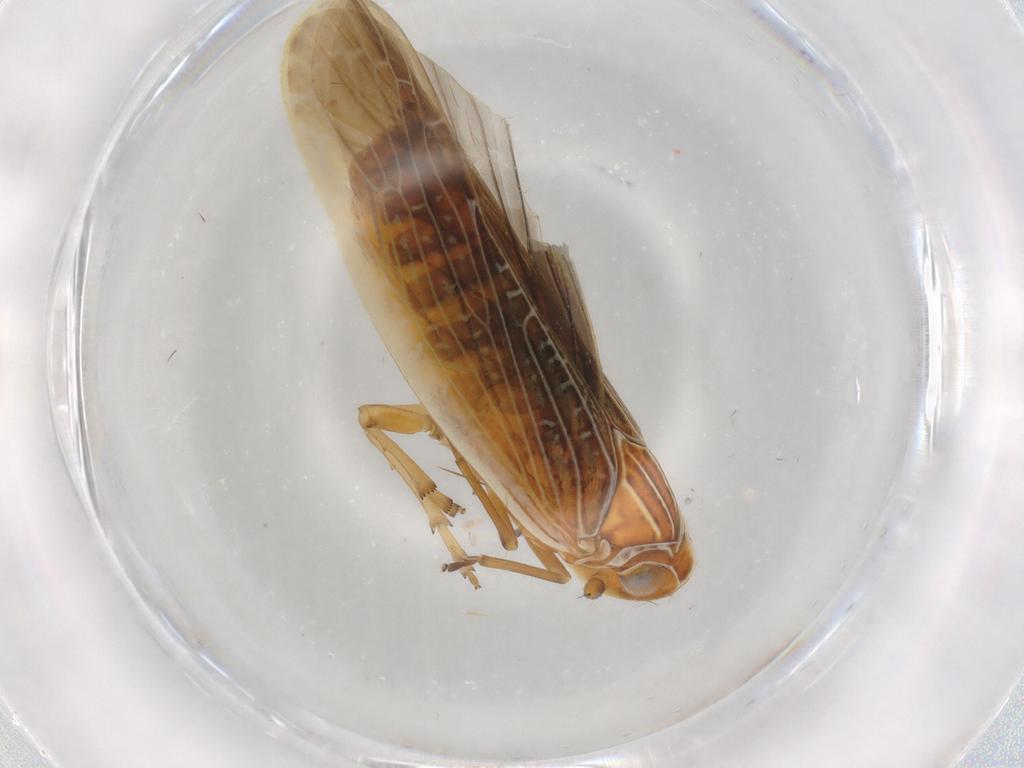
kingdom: Animalia
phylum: Arthropoda
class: Insecta
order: Hemiptera
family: Achilidae
